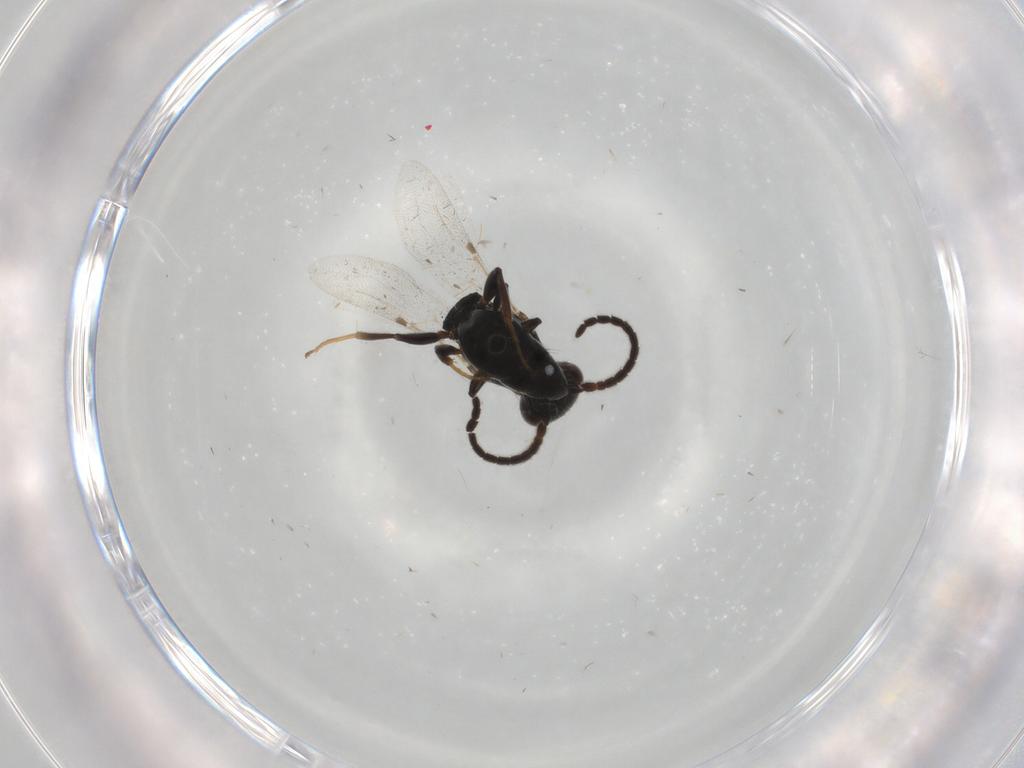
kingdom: Animalia
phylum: Arthropoda
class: Insecta
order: Hymenoptera
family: Bethylidae
